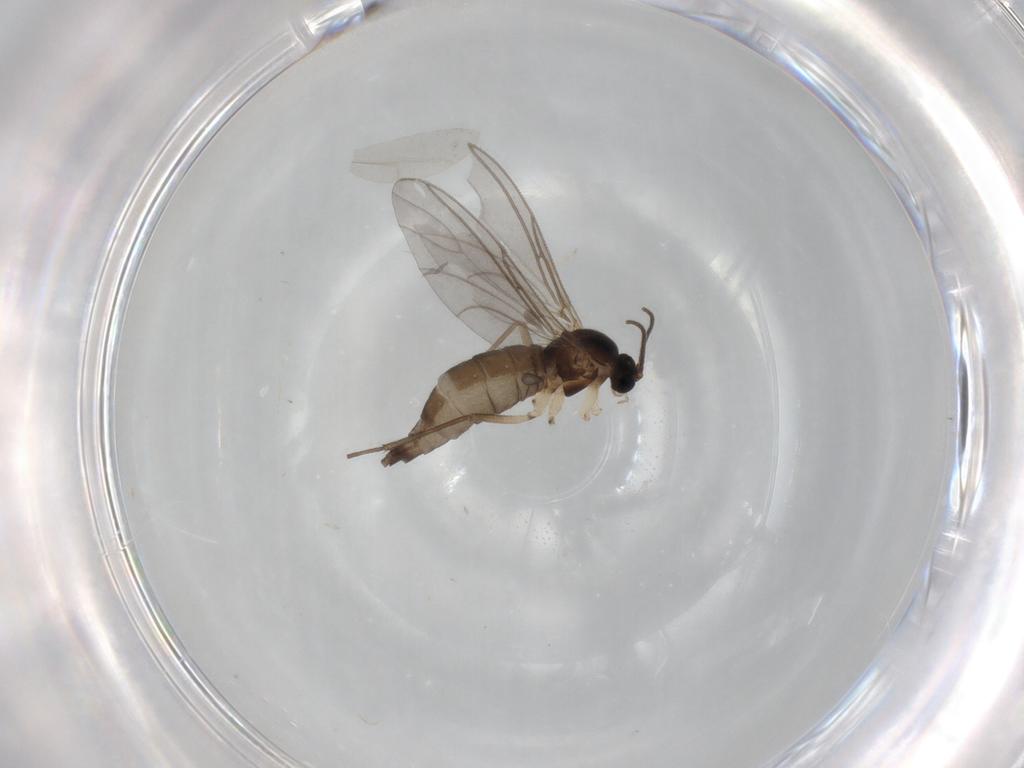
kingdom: Animalia
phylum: Arthropoda
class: Insecta
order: Diptera
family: Sciaridae
